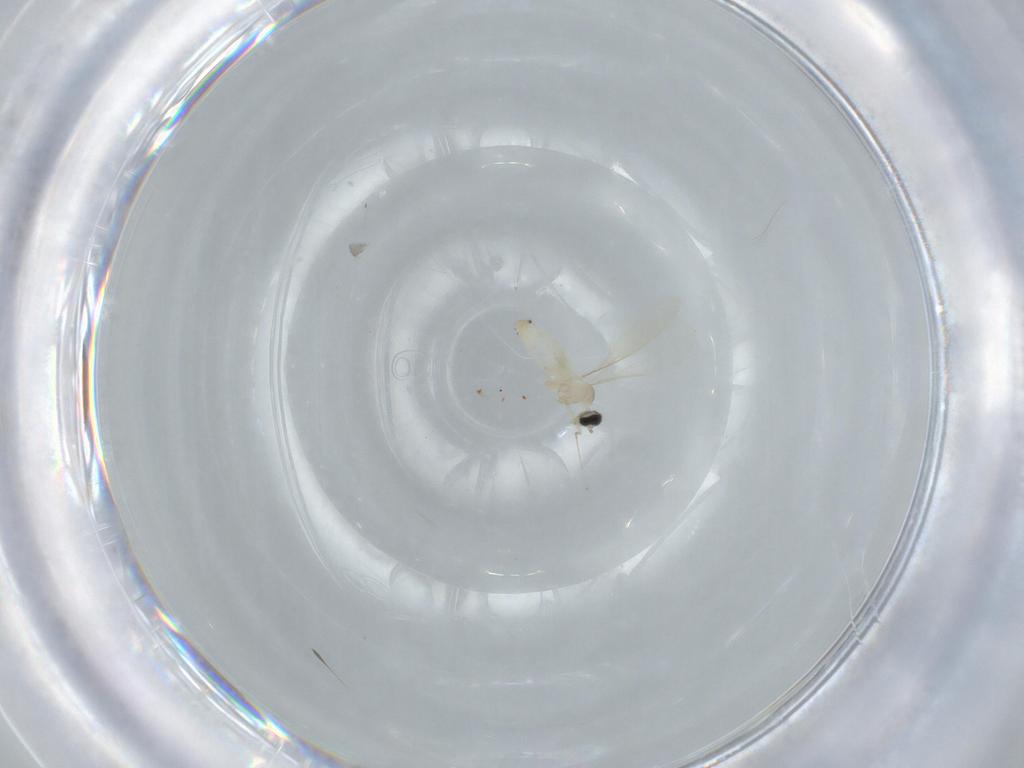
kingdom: Animalia
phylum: Arthropoda
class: Insecta
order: Diptera
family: Cecidomyiidae
